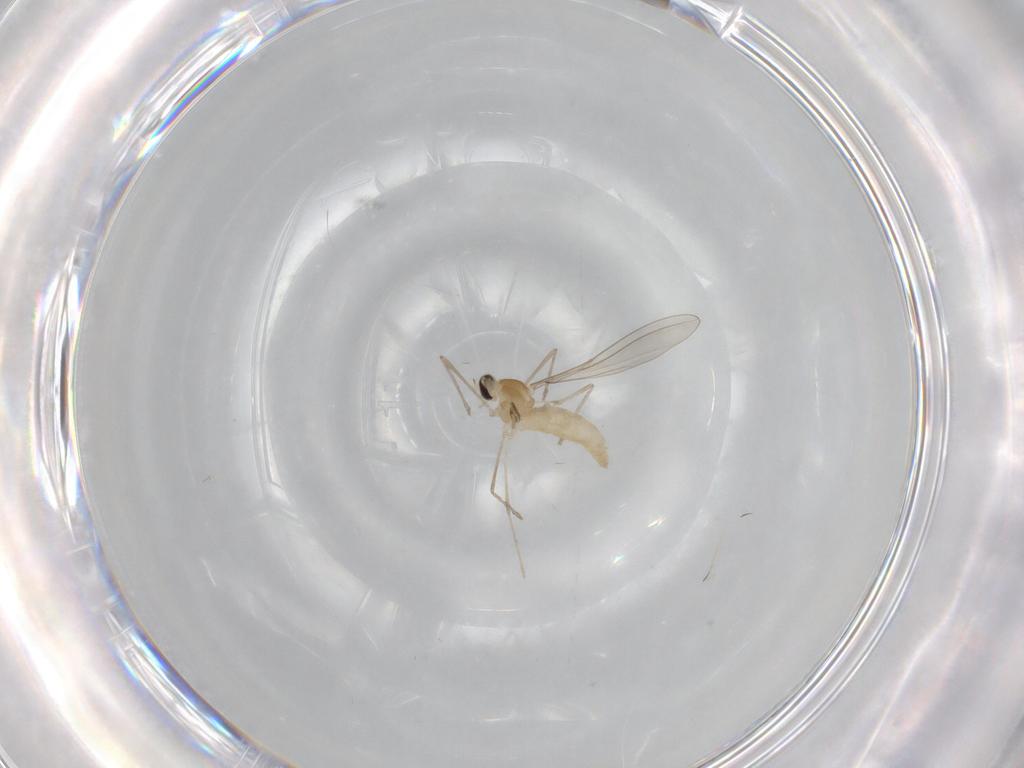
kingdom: Animalia
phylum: Arthropoda
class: Insecta
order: Diptera
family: Cecidomyiidae
